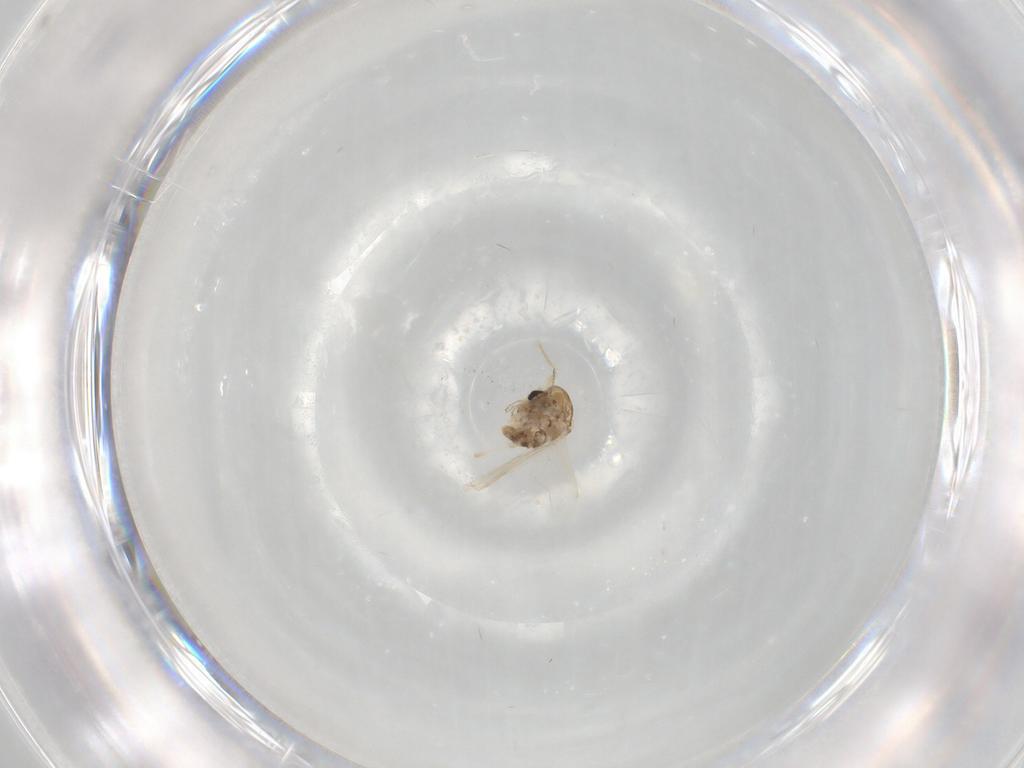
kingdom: Animalia
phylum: Arthropoda
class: Insecta
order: Diptera
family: Chironomidae
